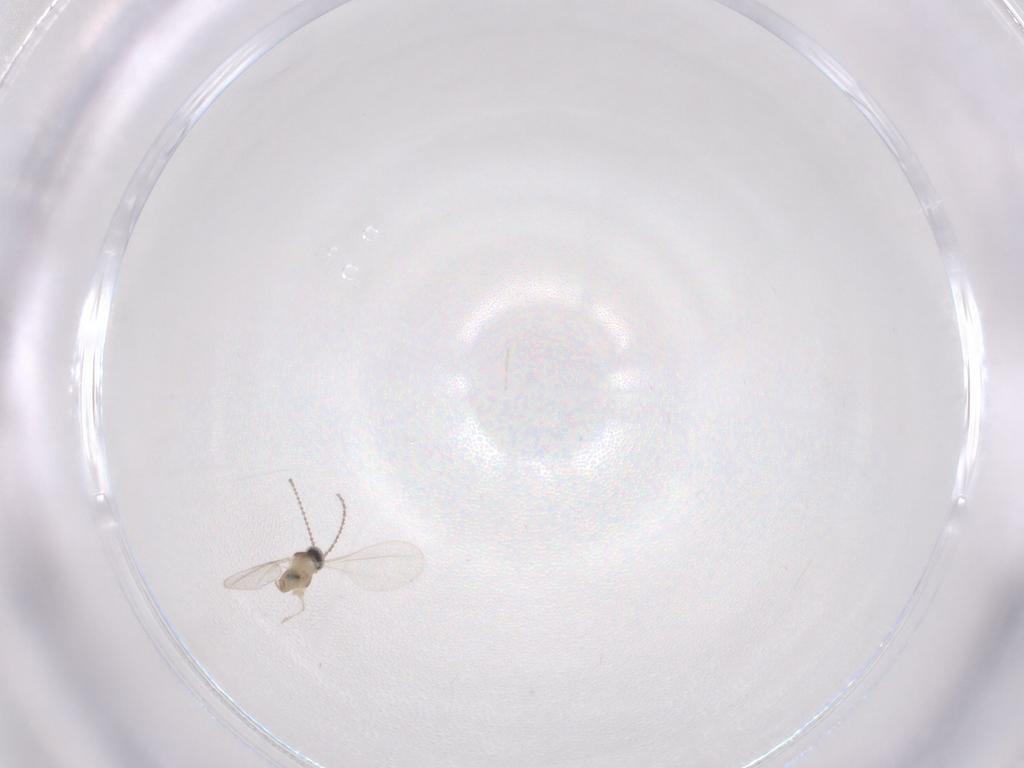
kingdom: Animalia
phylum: Arthropoda
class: Insecta
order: Diptera
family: Cecidomyiidae
